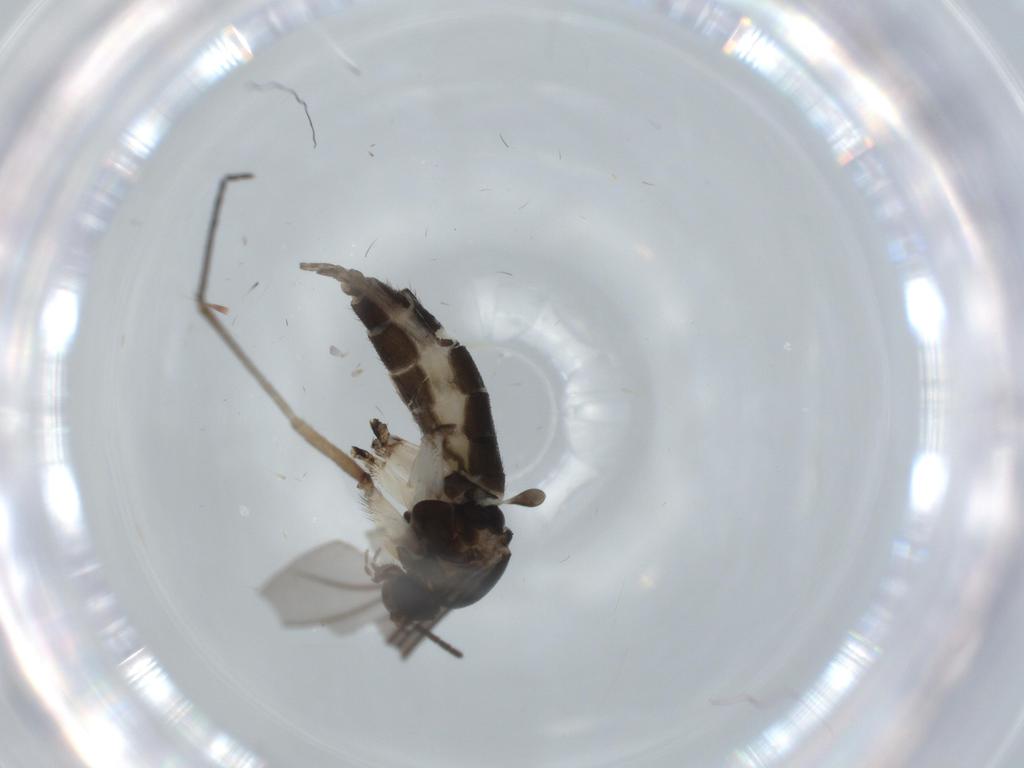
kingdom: Animalia
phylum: Arthropoda
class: Insecta
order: Diptera
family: Sciaridae
